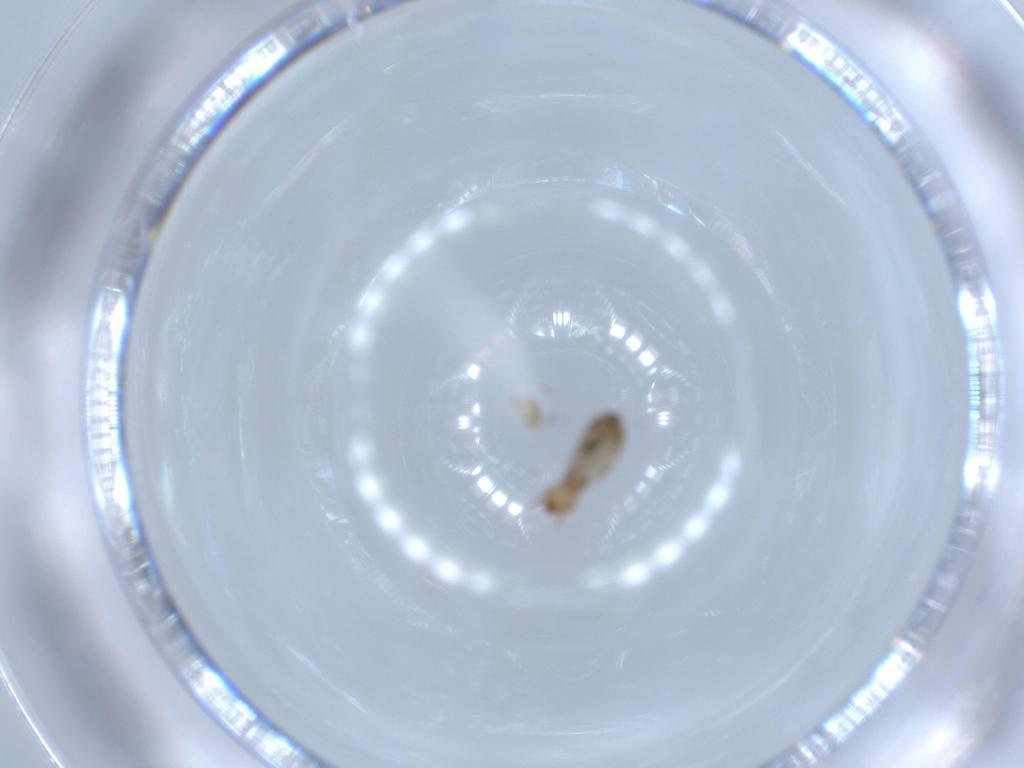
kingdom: Animalia
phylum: Arthropoda
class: Insecta
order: Psocodea
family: Liposcelididae
